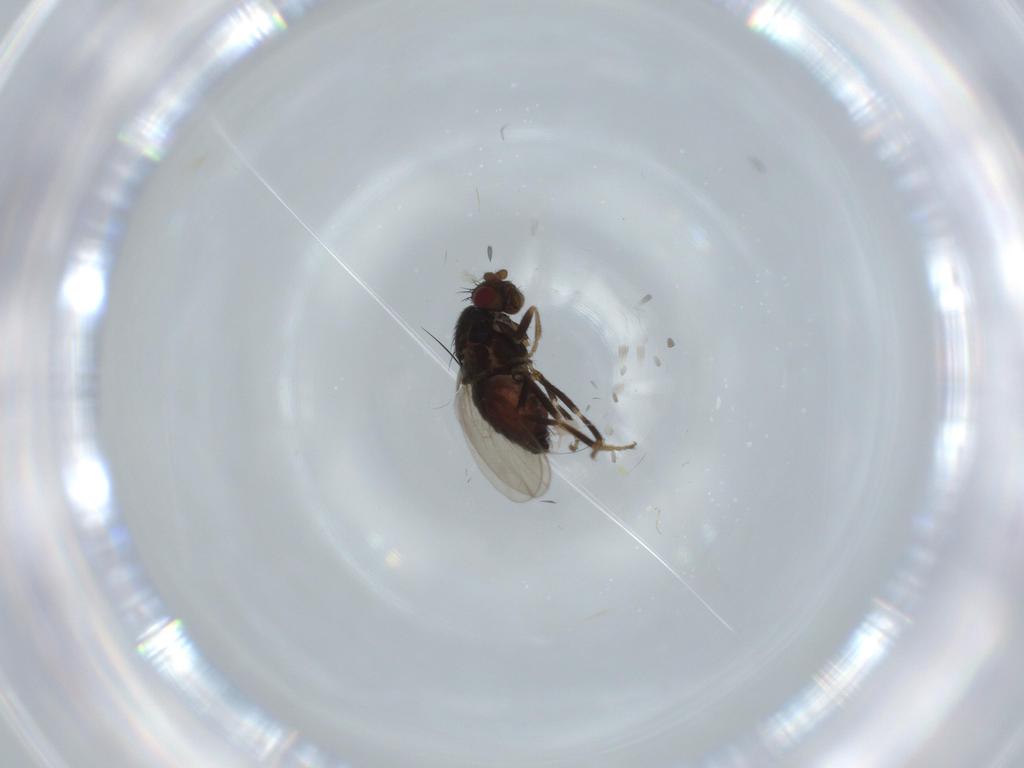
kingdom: Animalia
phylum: Arthropoda
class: Insecta
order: Diptera
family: Sphaeroceridae
